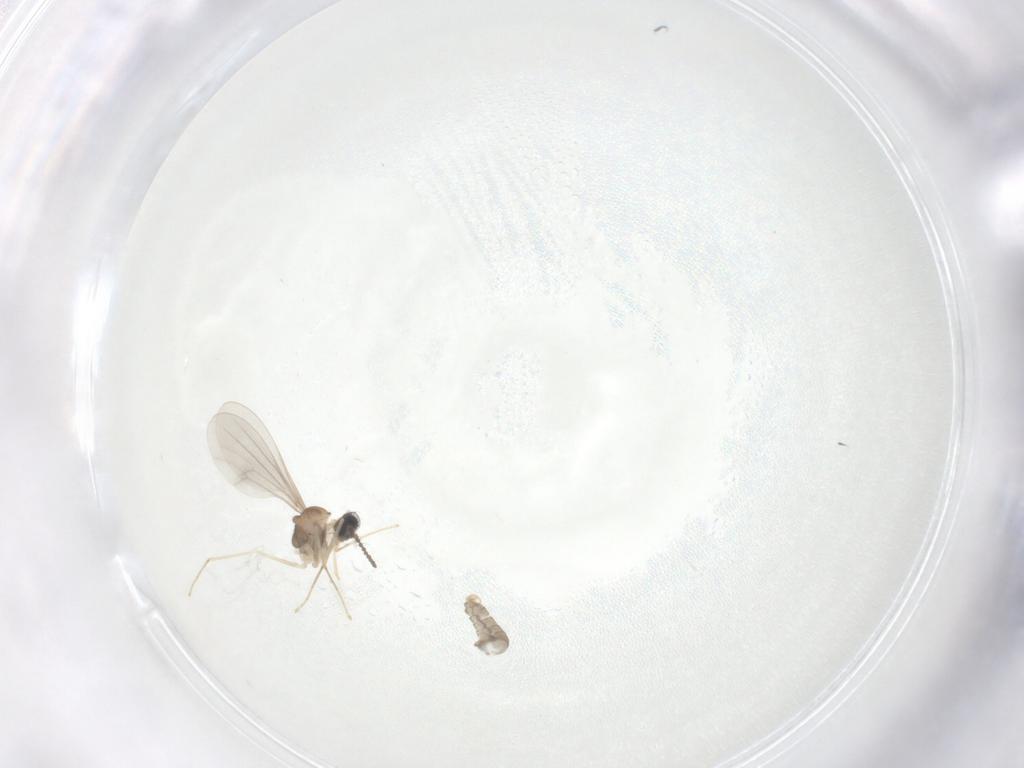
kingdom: Animalia
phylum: Arthropoda
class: Insecta
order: Diptera
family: Cecidomyiidae
